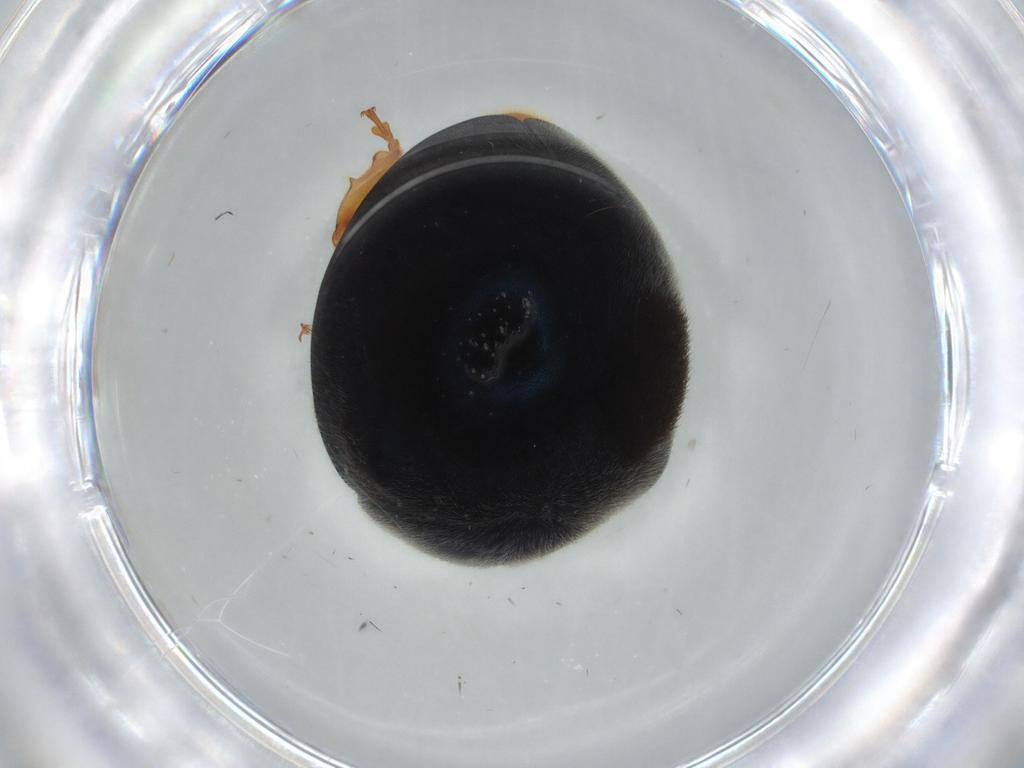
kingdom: Animalia
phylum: Arthropoda
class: Insecta
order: Coleoptera
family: Coccinellidae
